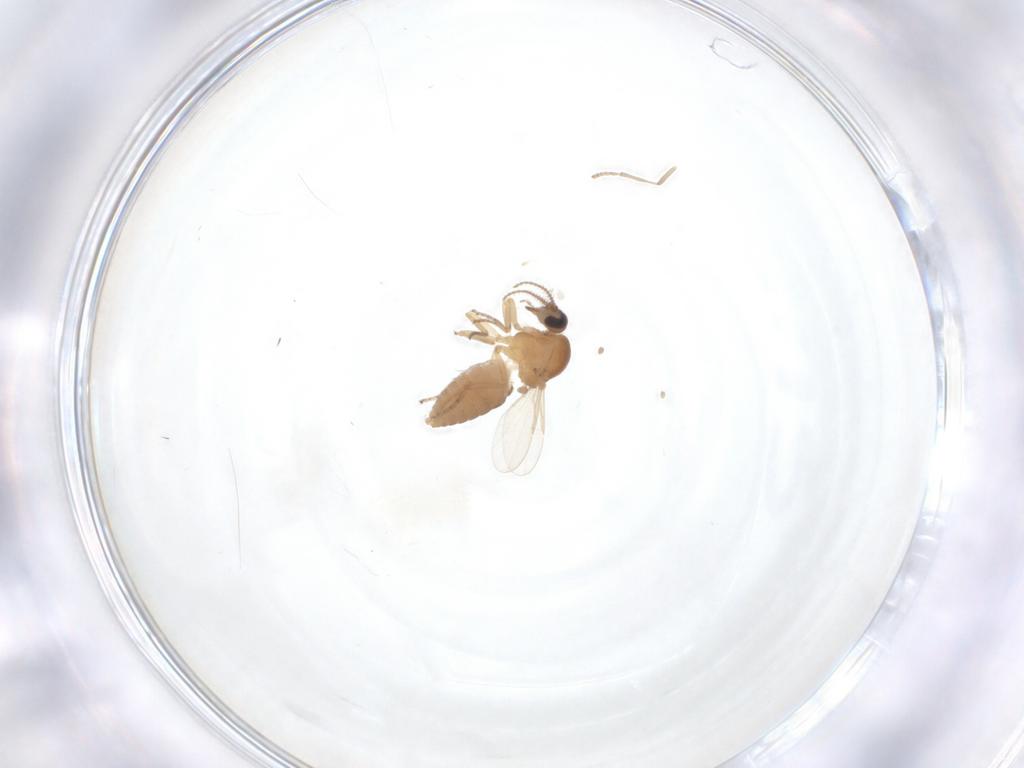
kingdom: Animalia
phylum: Arthropoda
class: Insecta
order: Diptera
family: Ceratopogonidae
